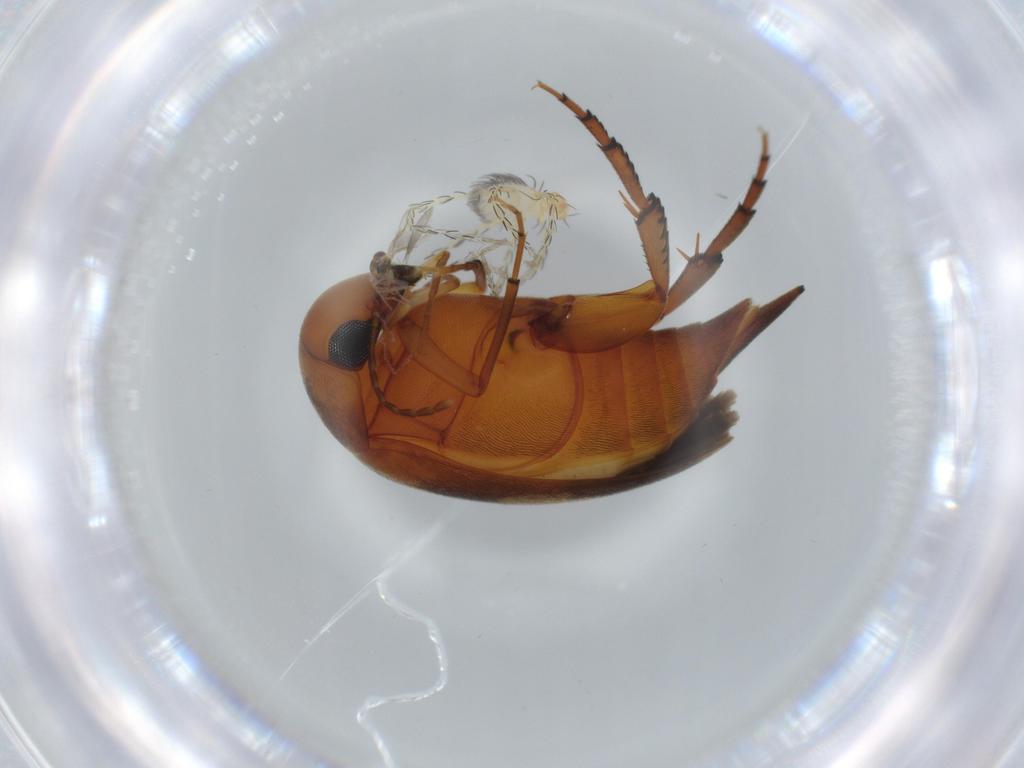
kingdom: Animalia
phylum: Arthropoda
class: Arachnida
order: Trombidiformes
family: Erythraeidae
